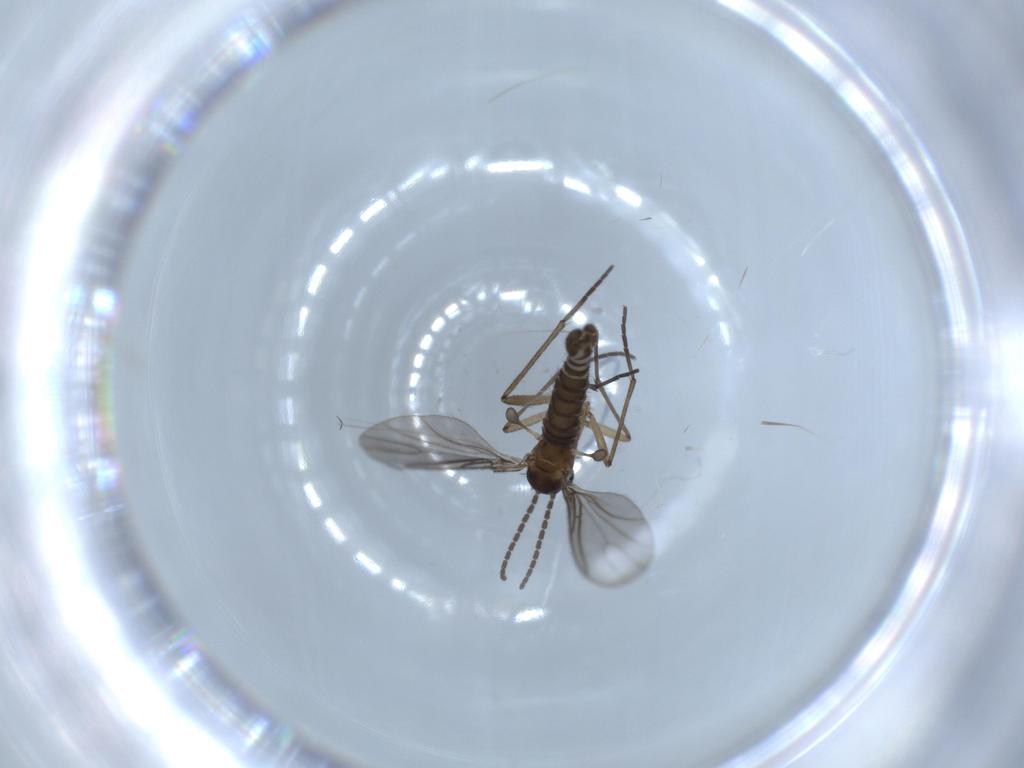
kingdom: Animalia
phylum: Arthropoda
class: Insecta
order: Diptera
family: Sciaridae
